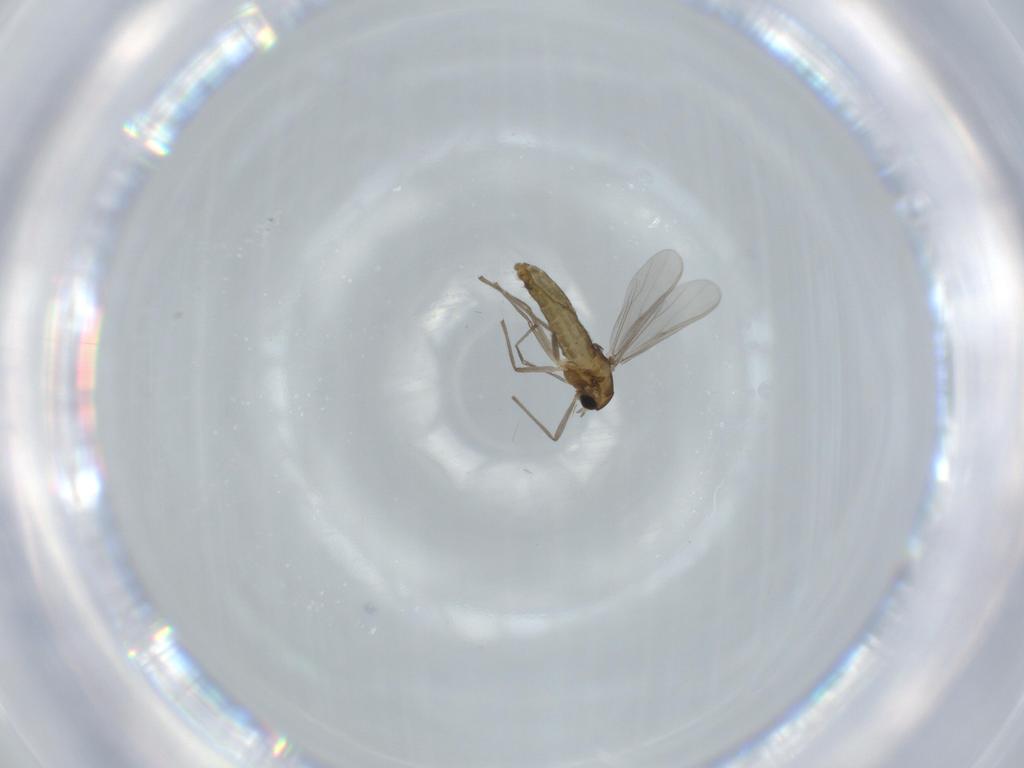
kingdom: Animalia
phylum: Arthropoda
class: Insecta
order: Diptera
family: Chironomidae
